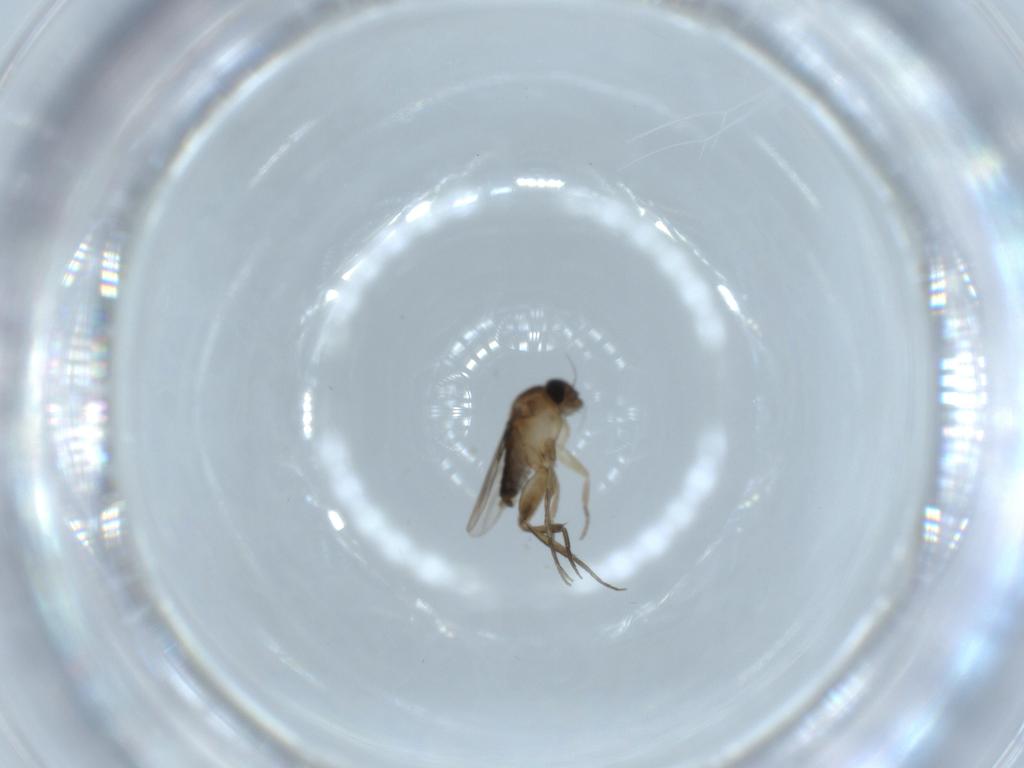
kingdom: Animalia
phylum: Arthropoda
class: Insecta
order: Diptera
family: Phoridae
